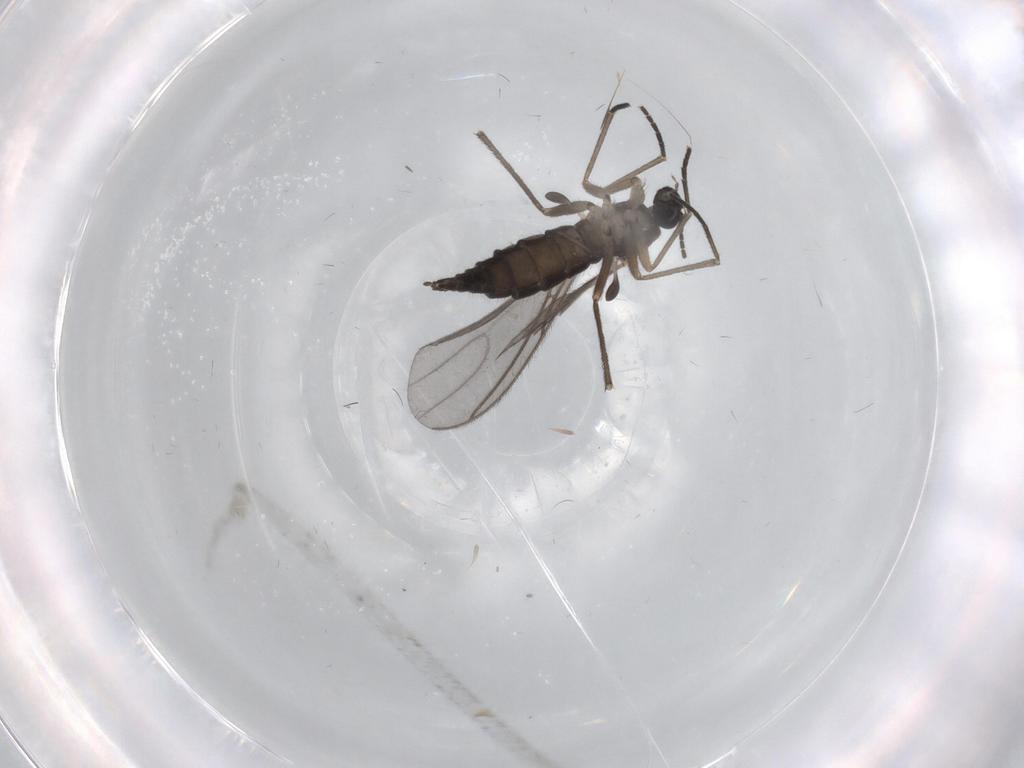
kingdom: Animalia
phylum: Arthropoda
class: Insecta
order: Diptera
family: Sciaridae
